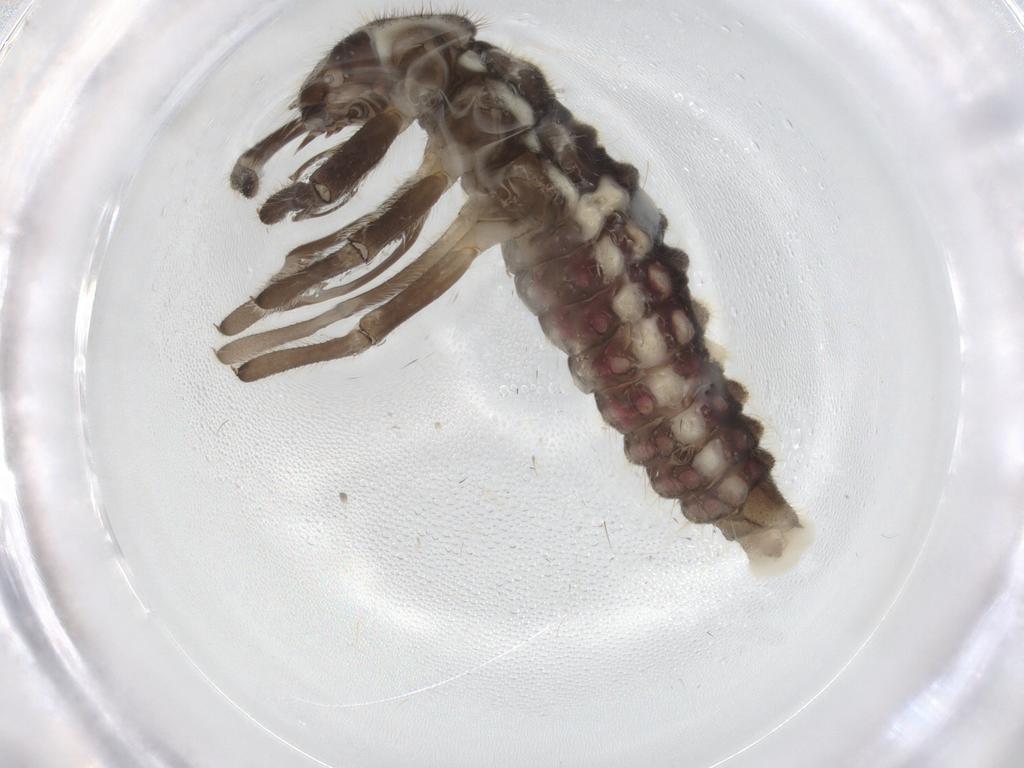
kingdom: Animalia
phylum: Arthropoda
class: Insecta
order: Coleoptera
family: Coccinellidae
